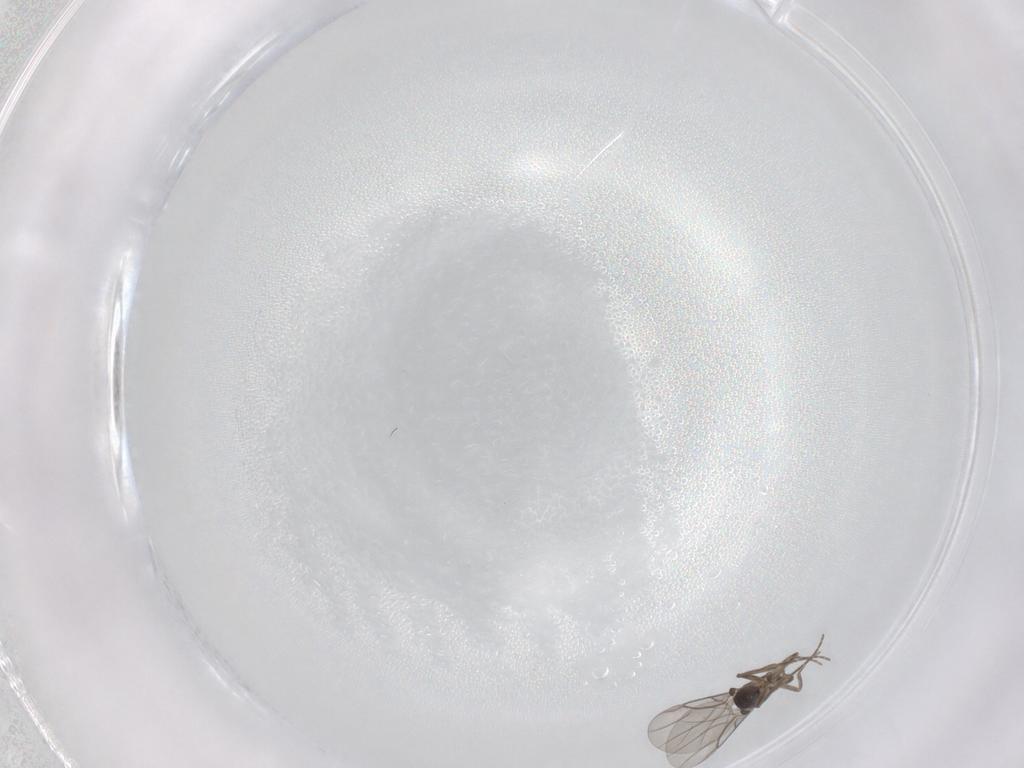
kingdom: Animalia
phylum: Arthropoda
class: Insecta
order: Diptera
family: Phoridae
